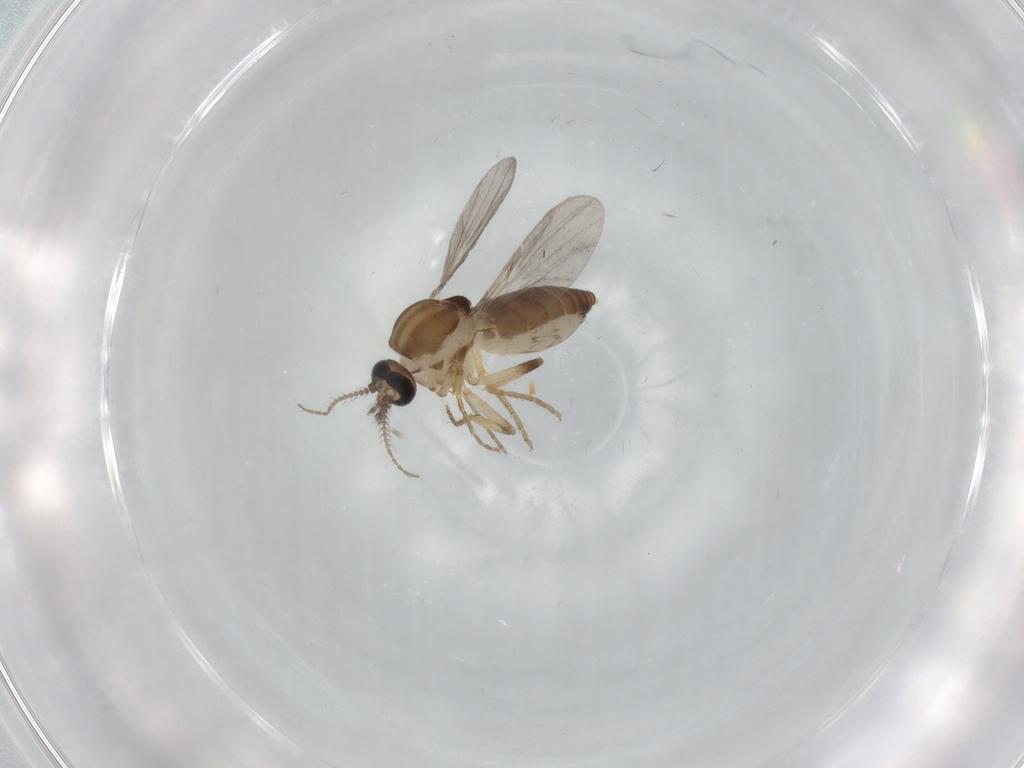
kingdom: Animalia
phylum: Arthropoda
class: Insecta
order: Diptera
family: Ceratopogonidae
